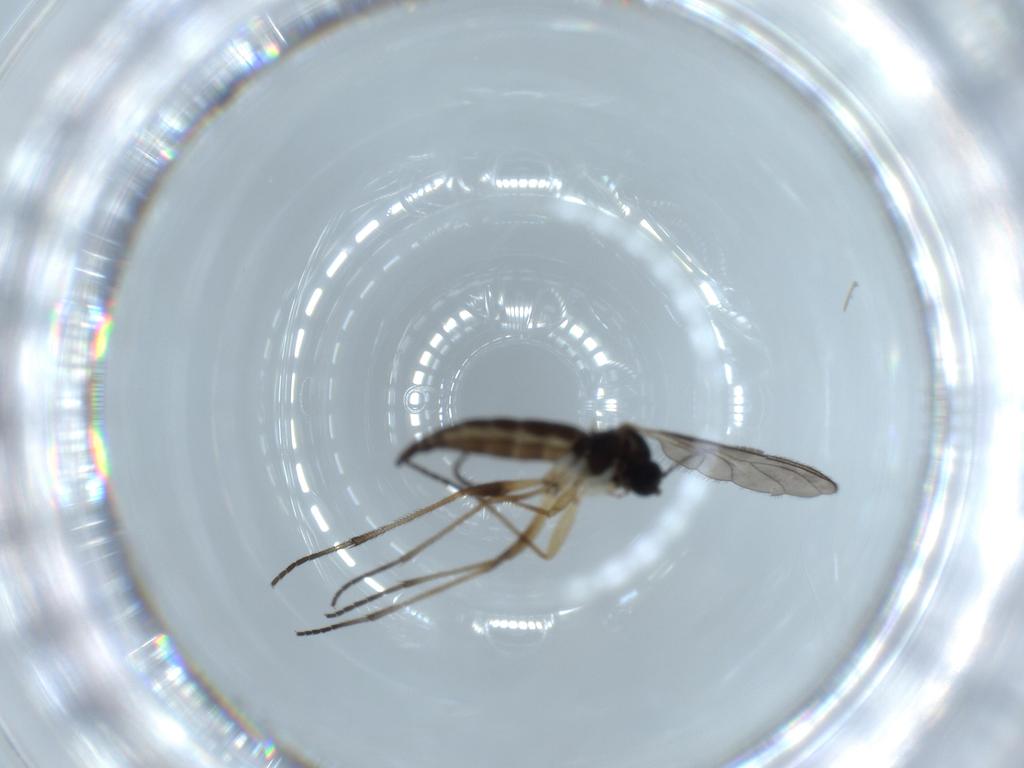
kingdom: Animalia
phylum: Arthropoda
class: Insecta
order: Diptera
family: Sciaridae
